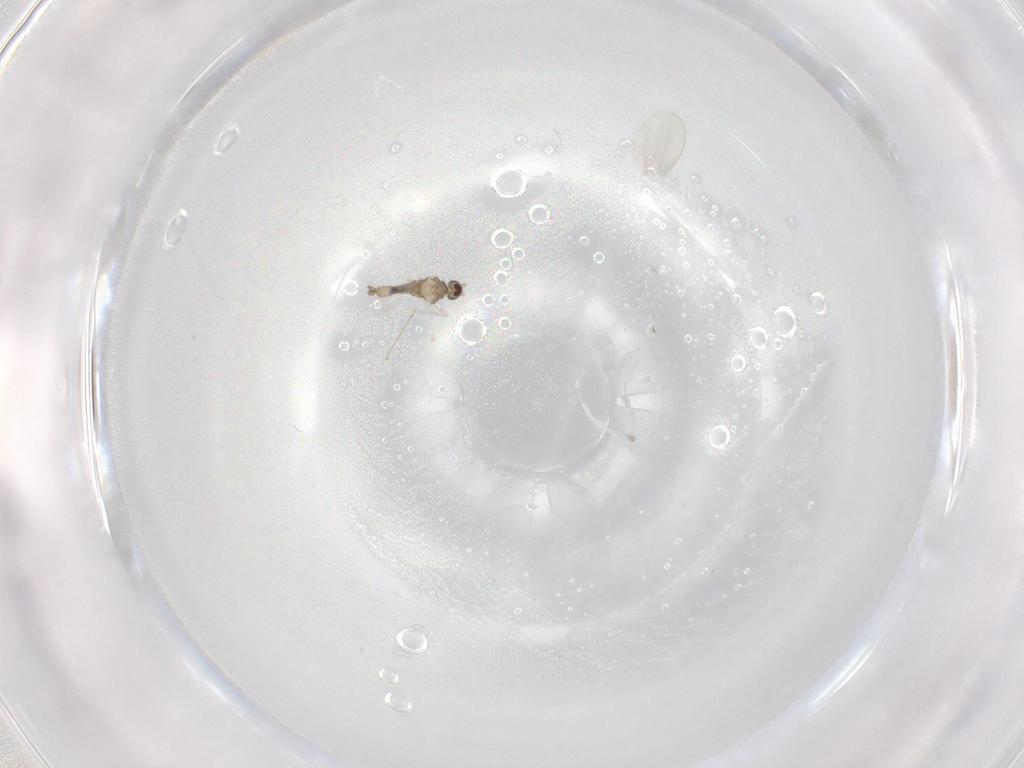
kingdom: Animalia
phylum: Arthropoda
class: Insecta
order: Diptera
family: Cecidomyiidae
